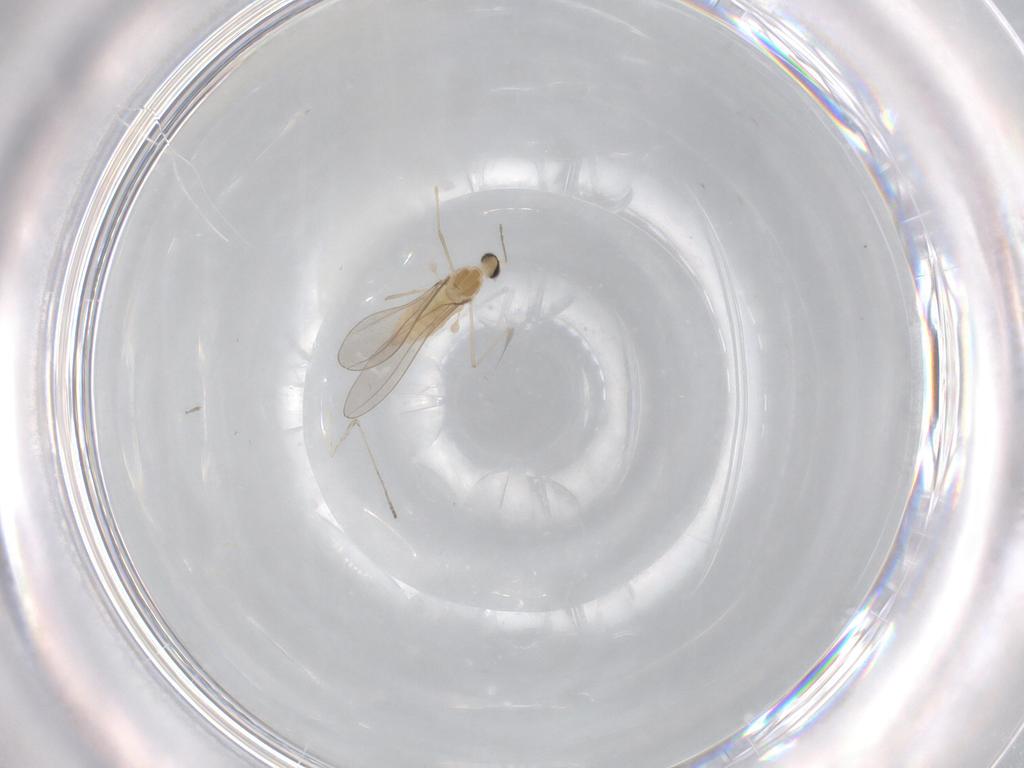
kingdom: Animalia
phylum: Arthropoda
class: Insecta
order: Diptera
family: Cecidomyiidae
